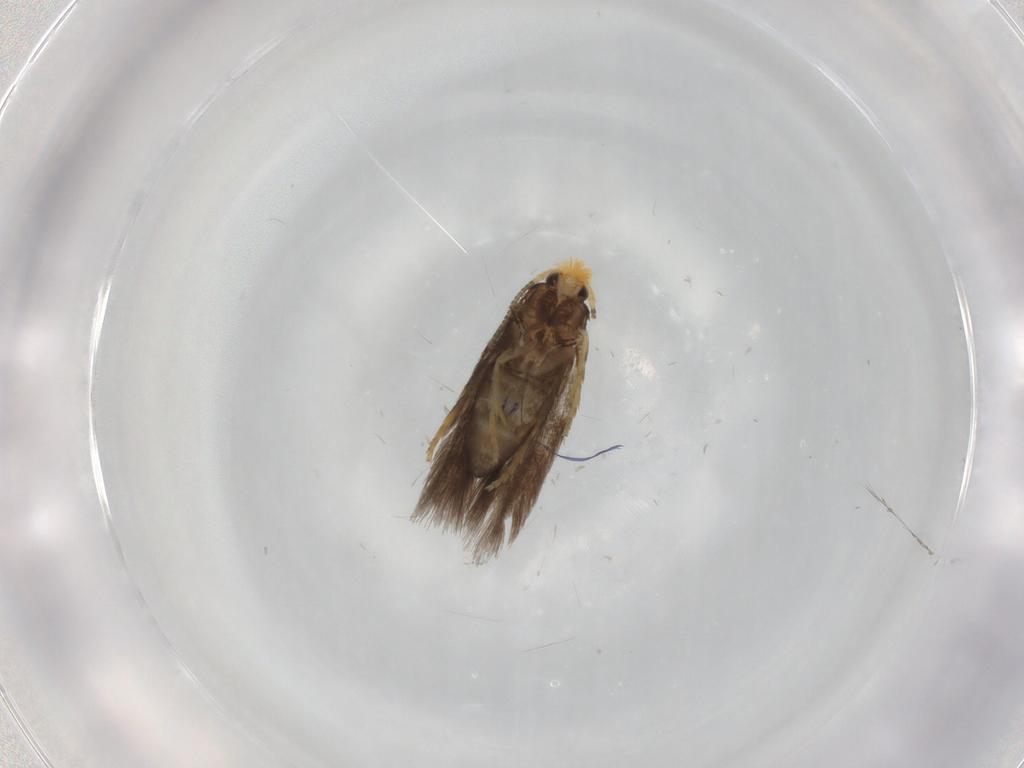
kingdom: Animalia
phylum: Arthropoda
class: Insecta
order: Lepidoptera
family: Nepticulidae
